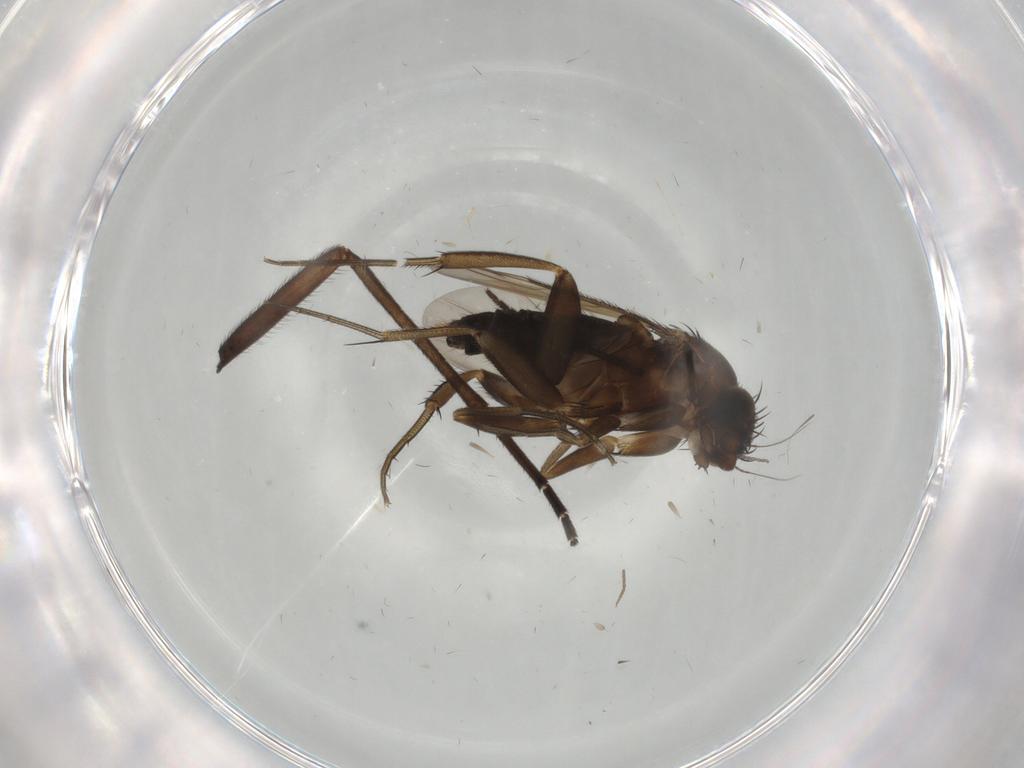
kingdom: Animalia
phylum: Arthropoda
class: Insecta
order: Diptera
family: Phoridae
